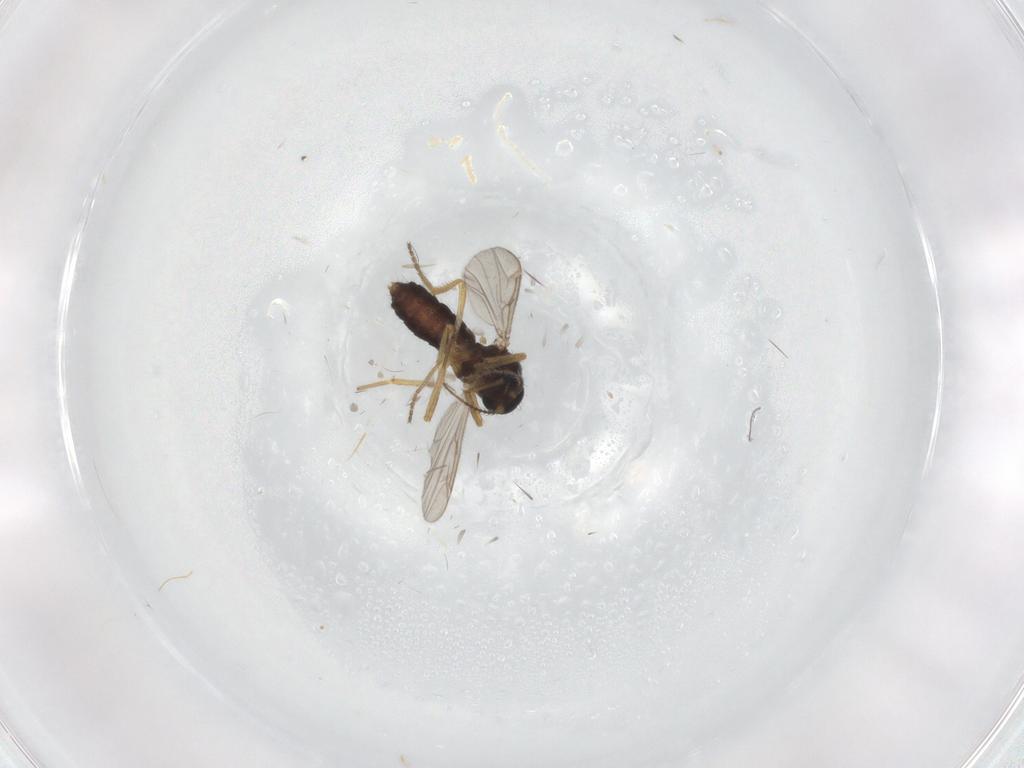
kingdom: Animalia
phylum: Arthropoda
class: Insecta
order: Diptera
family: Ceratopogonidae
